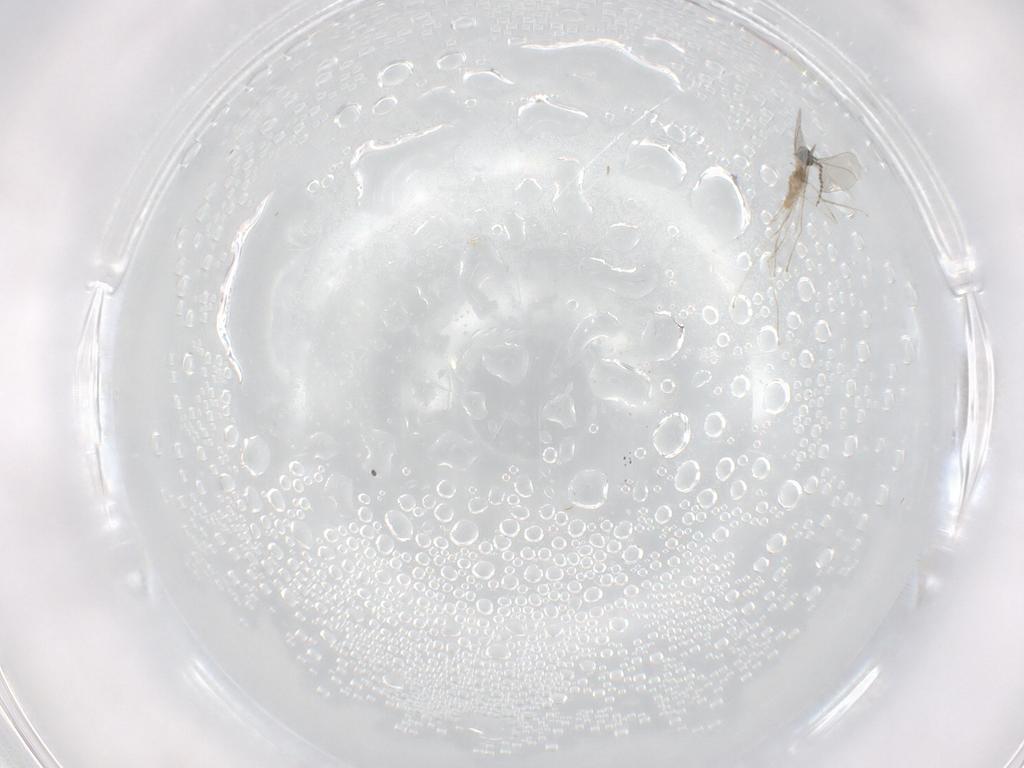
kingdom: Animalia
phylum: Arthropoda
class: Insecta
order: Diptera
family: Cecidomyiidae
